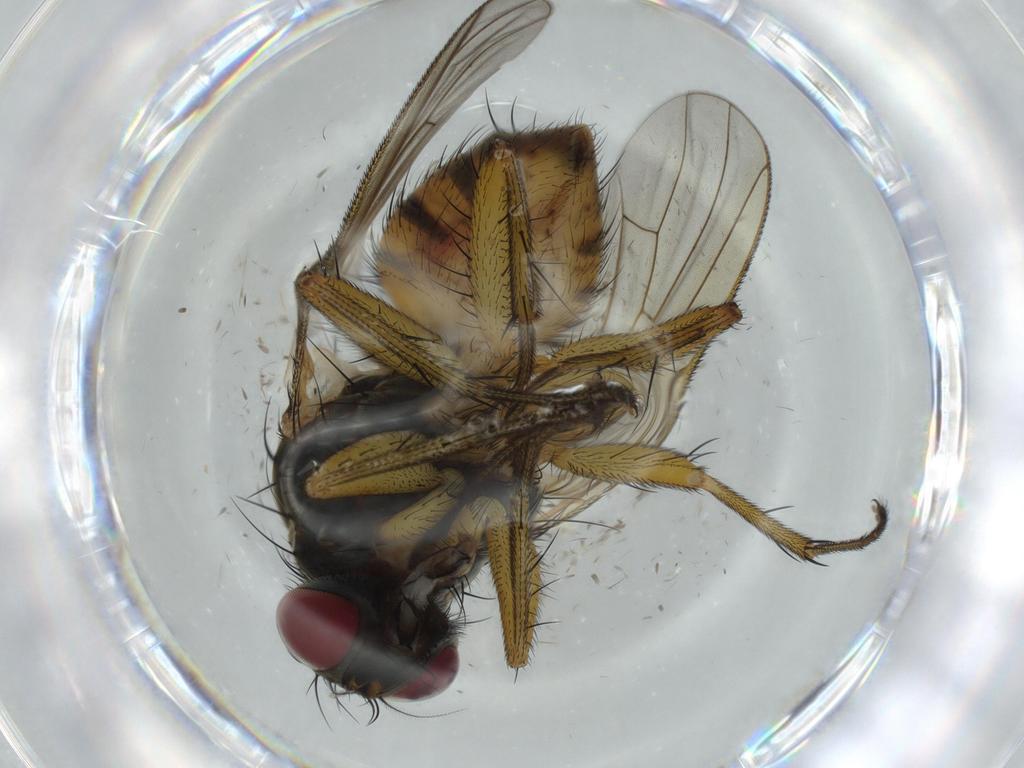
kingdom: Animalia
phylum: Arthropoda
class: Insecta
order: Diptera
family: Muscidae
